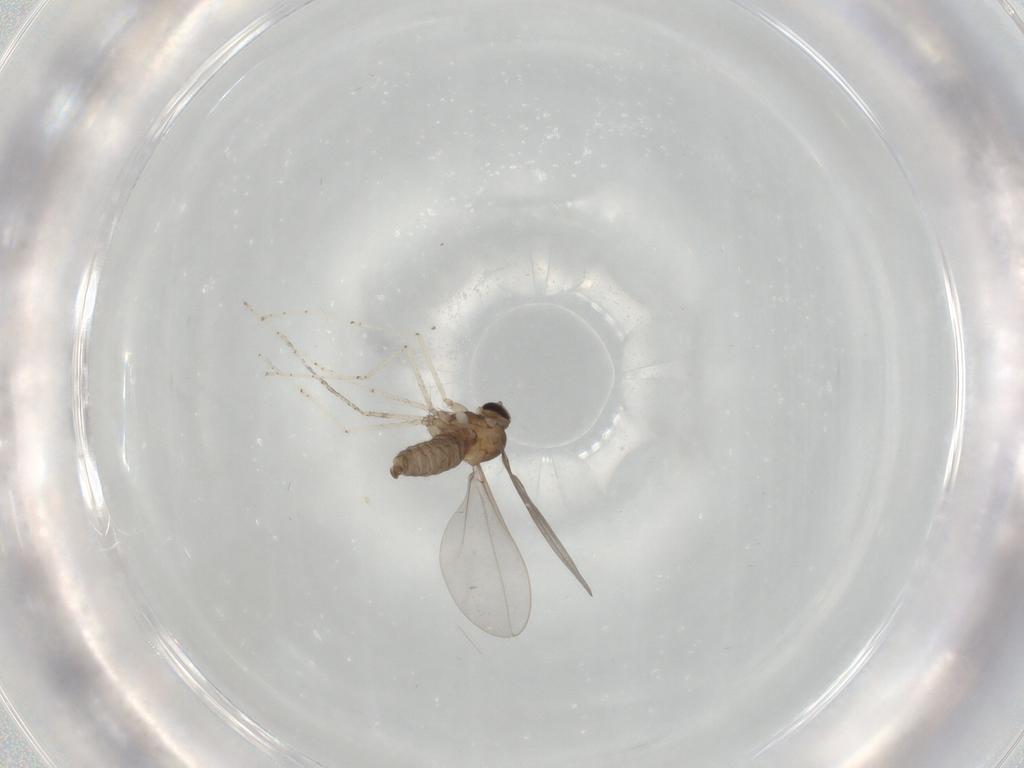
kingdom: Animalia
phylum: Arthropoda
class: Insecta
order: Diptera
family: Cecidomyiidae
